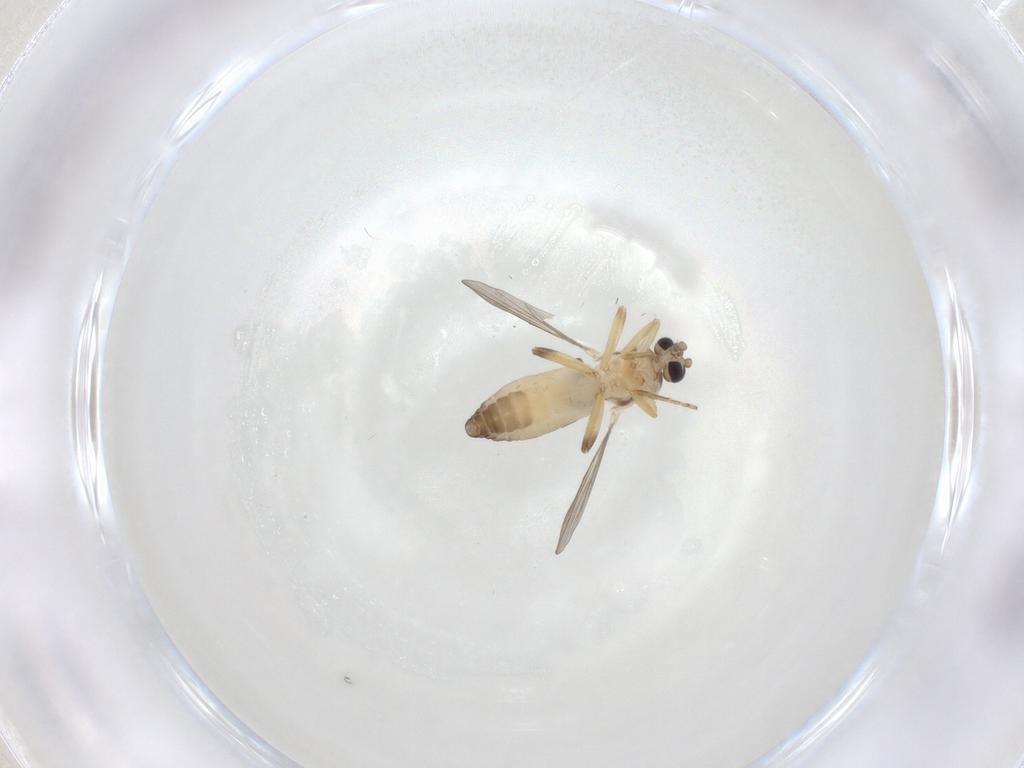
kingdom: Animalia
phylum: Arthropoda
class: Insecta
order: Diptera
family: Ceratopogonidae
